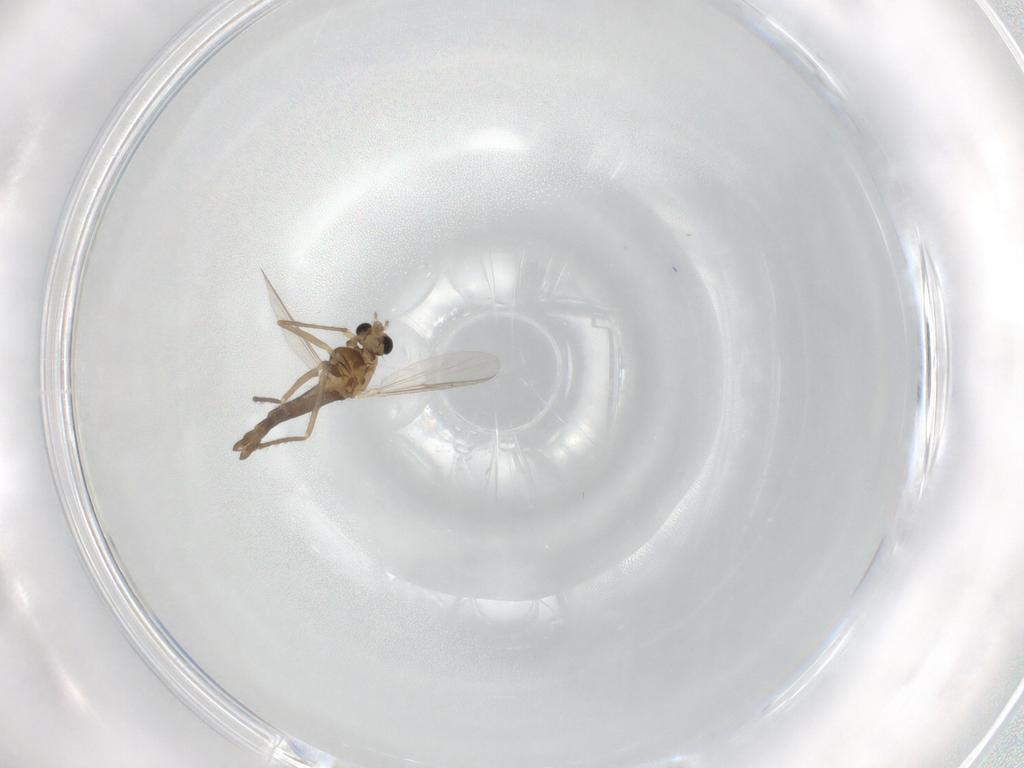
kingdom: Animalia
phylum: Arthropoda
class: Insecta
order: Diptera
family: Chironomidae
